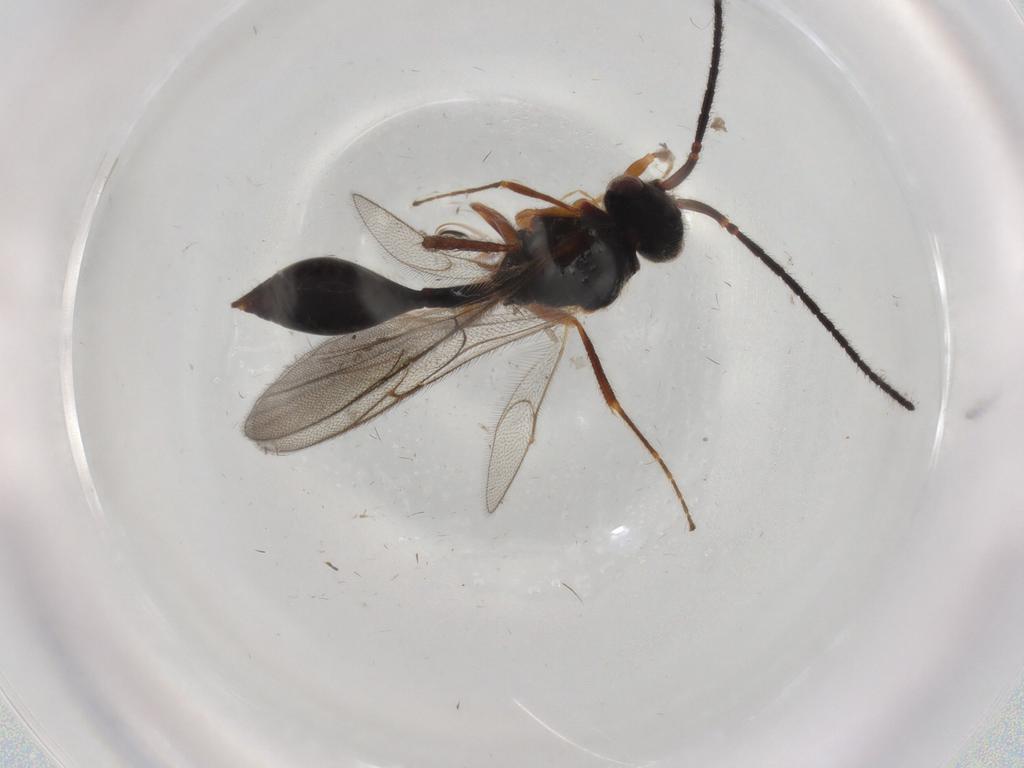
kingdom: Animalia
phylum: Arthropoda
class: Insecta
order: Hymenoptera
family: Diapriidae
